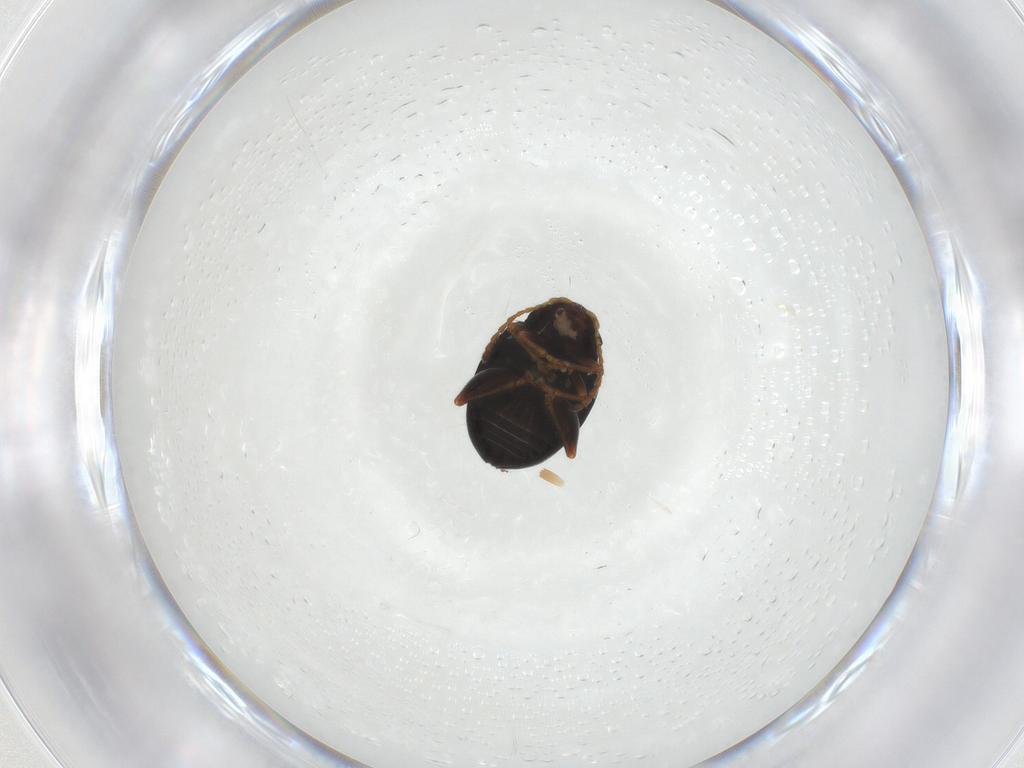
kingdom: Animalia
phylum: Arthropoda
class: Insecta
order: Coleoptera
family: Chrysomelidae
